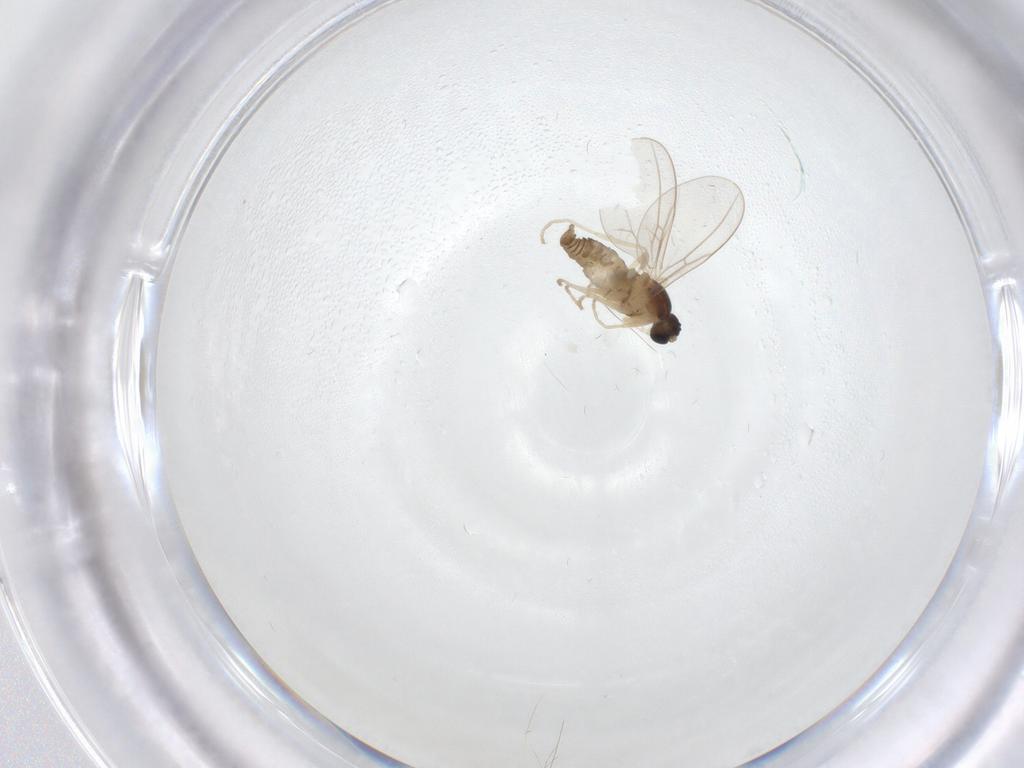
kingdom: Animalia
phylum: Arthropoda
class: Insecta
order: Diptera
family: Cecidomyiidae
